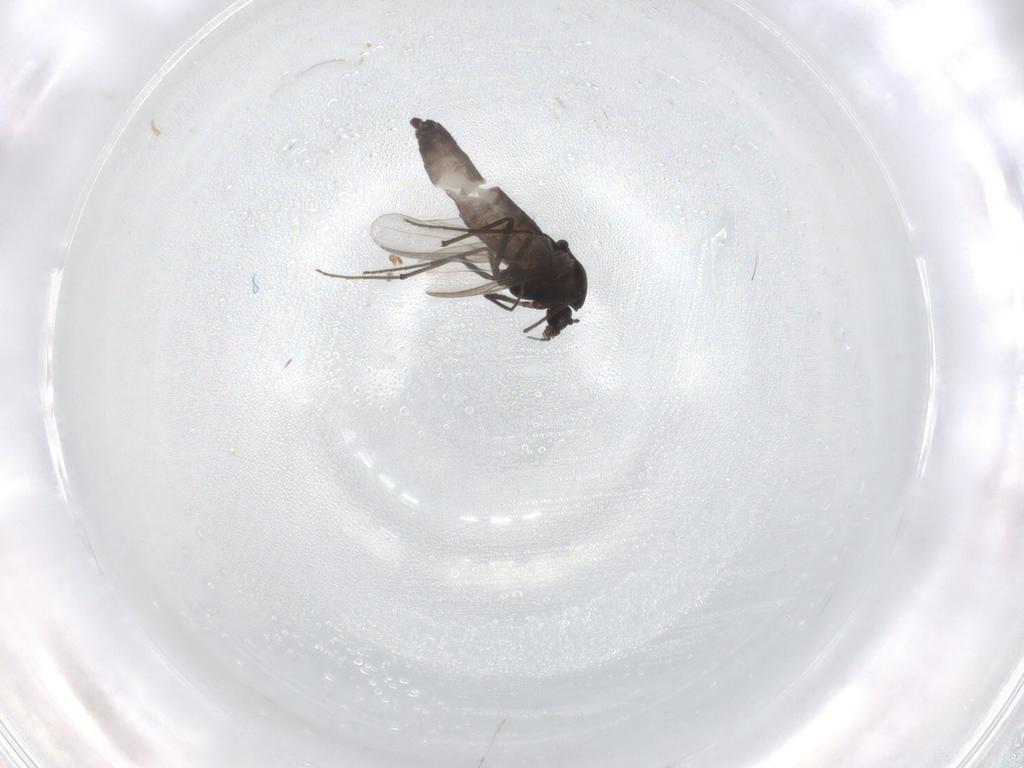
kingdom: Animalia
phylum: Arthropoda
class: Insecta
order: Diptera
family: Chironomidae
